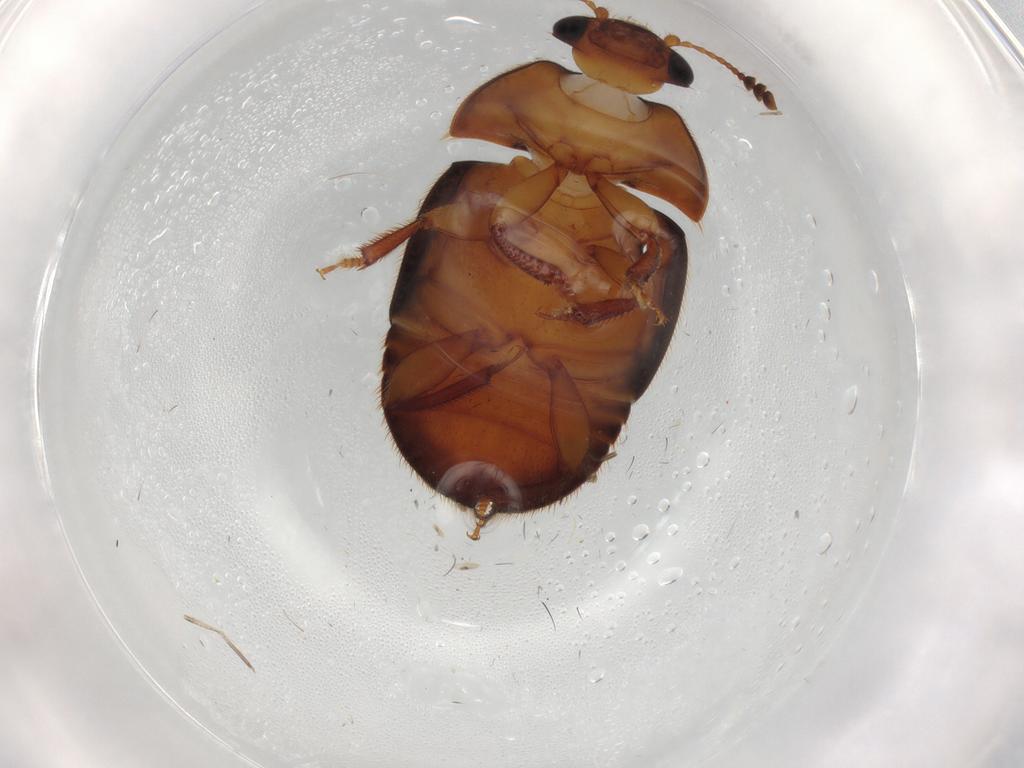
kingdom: Animalia
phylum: Arthropoda
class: Insecta
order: Coleoptera
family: Nitidulidae
